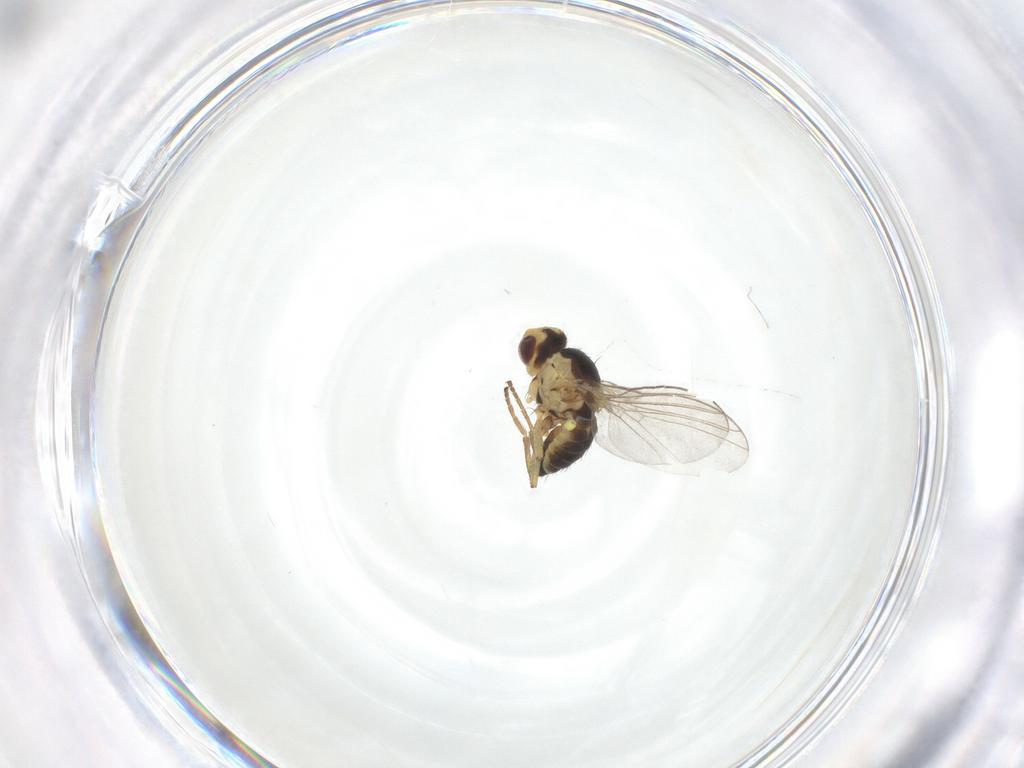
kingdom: Animalia
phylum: Arthropoda
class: Insecta
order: Diptera
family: Agromyzidae
